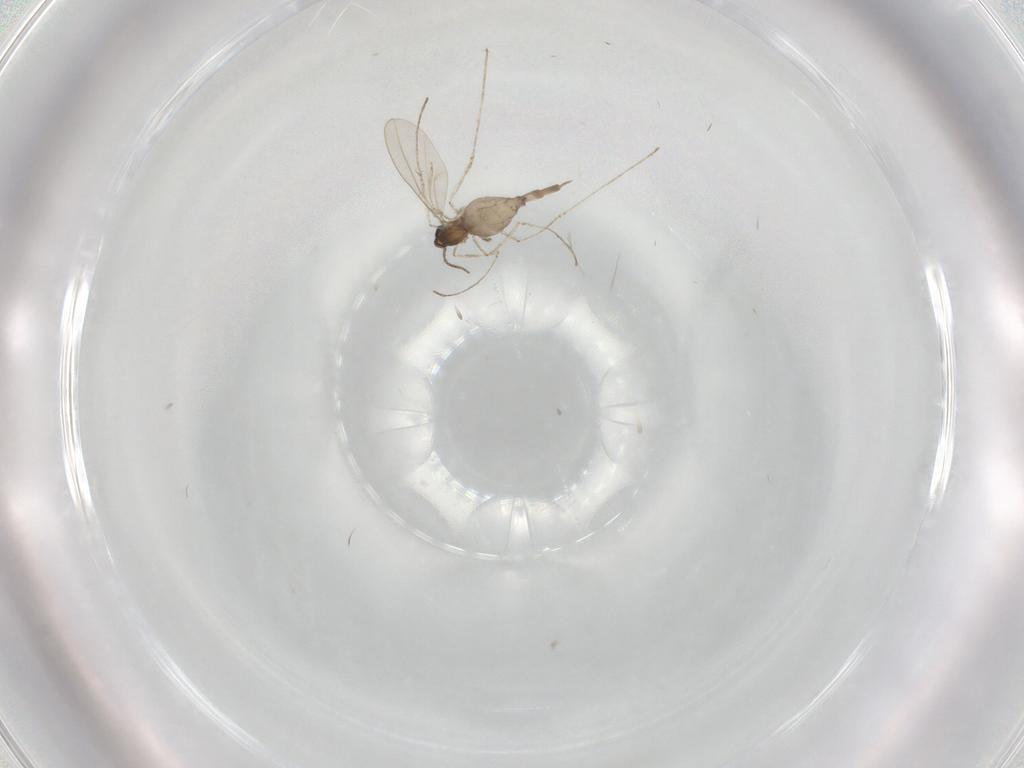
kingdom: Animalia
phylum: Arthropoda
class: Insecta
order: Diptera
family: Cecidomyiidae
